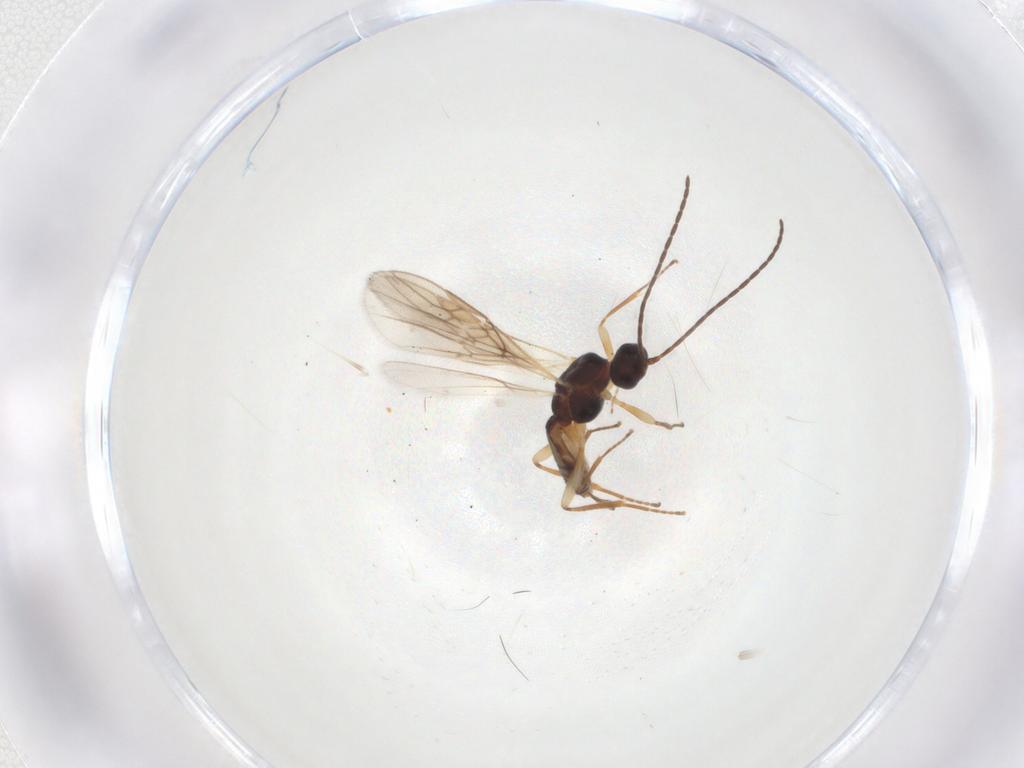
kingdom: Animalia
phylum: Arthropoda
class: Insecta
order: Hymenoptera
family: Braconidae
